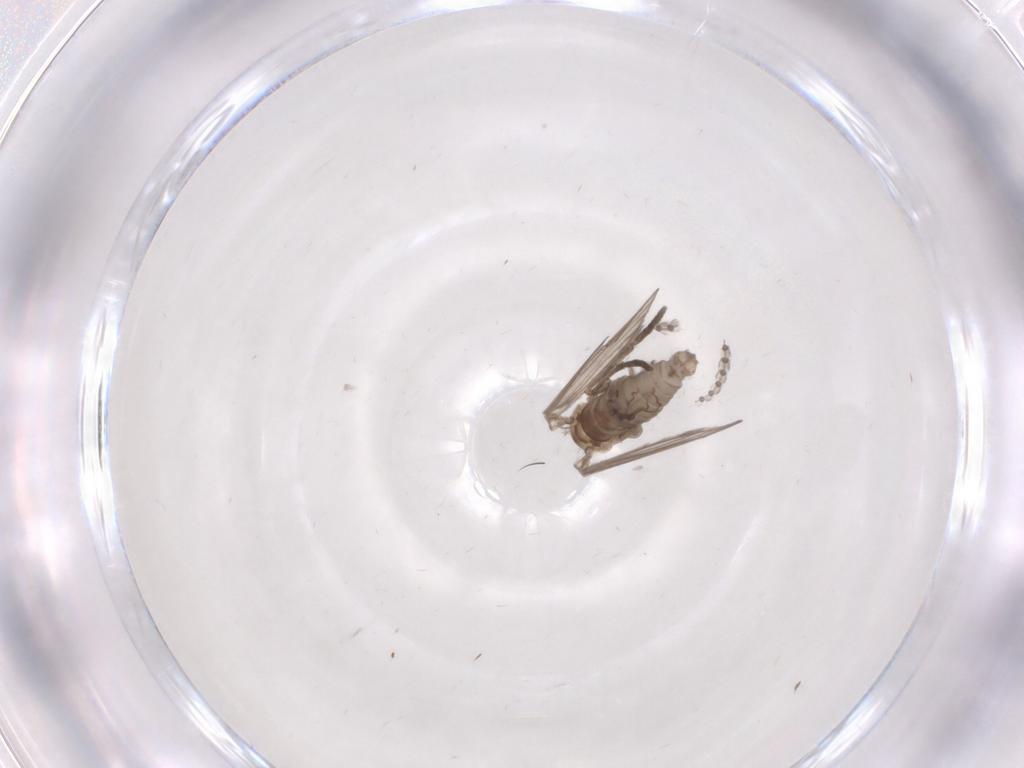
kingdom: Animalia
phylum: Arthropoda
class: Insecta
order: Diptera
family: Psychodidae
